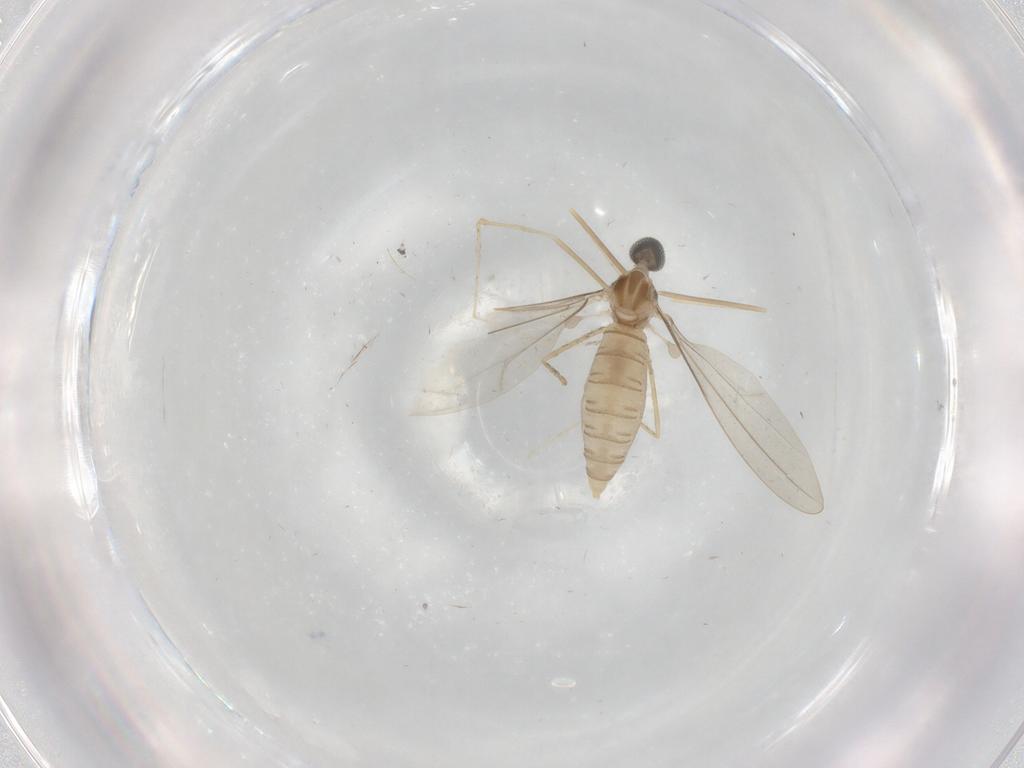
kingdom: Animalia
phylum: Arthropoda
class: Insecta
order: Diptera
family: Cecidomyiidae
